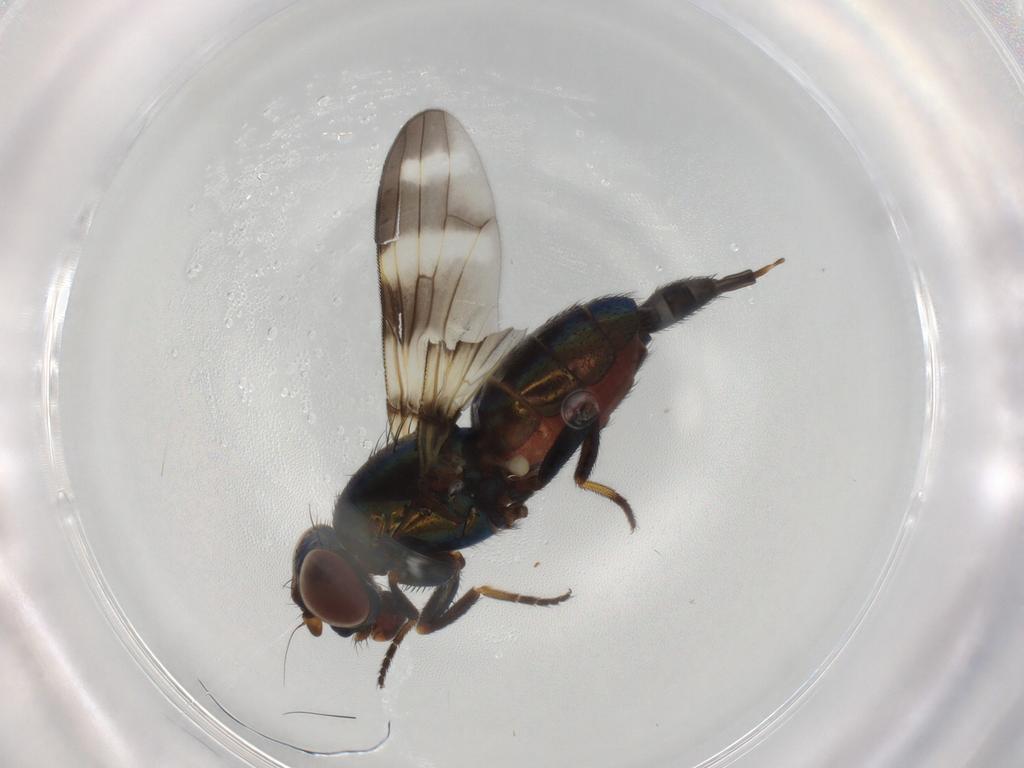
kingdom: Animalia
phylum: Arthropoda
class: Insecta
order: Diptera
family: Ulidiidae
